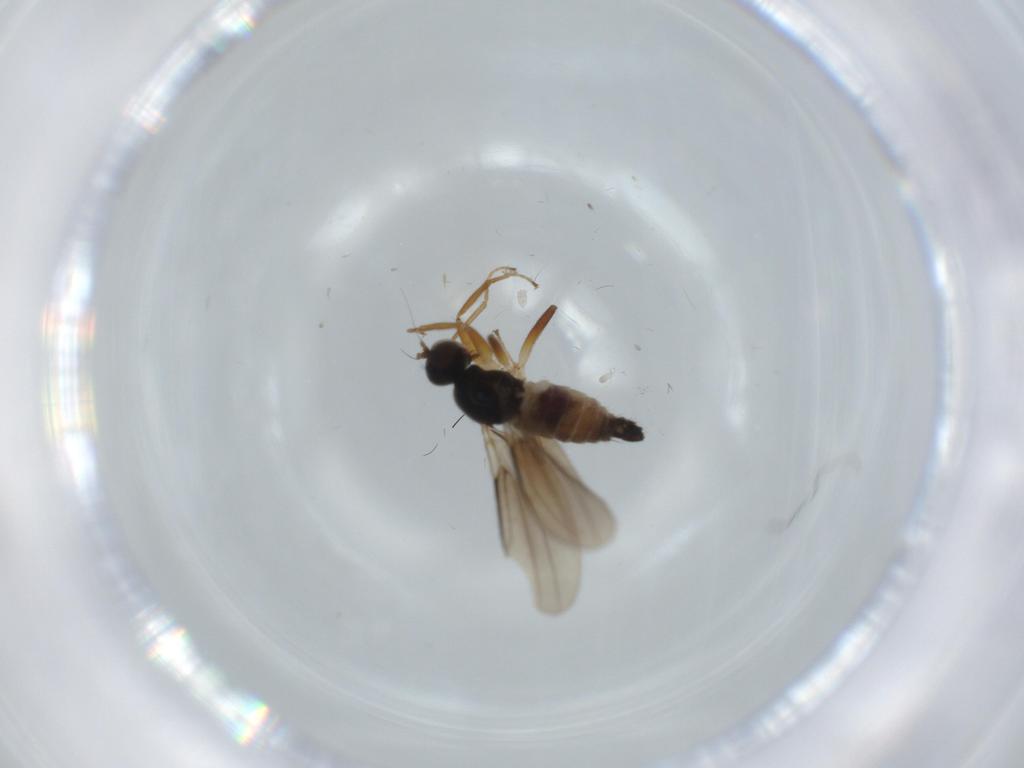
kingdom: Animalia
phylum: Arthropoda
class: Insecta
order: Diptera
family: Hybotidae
